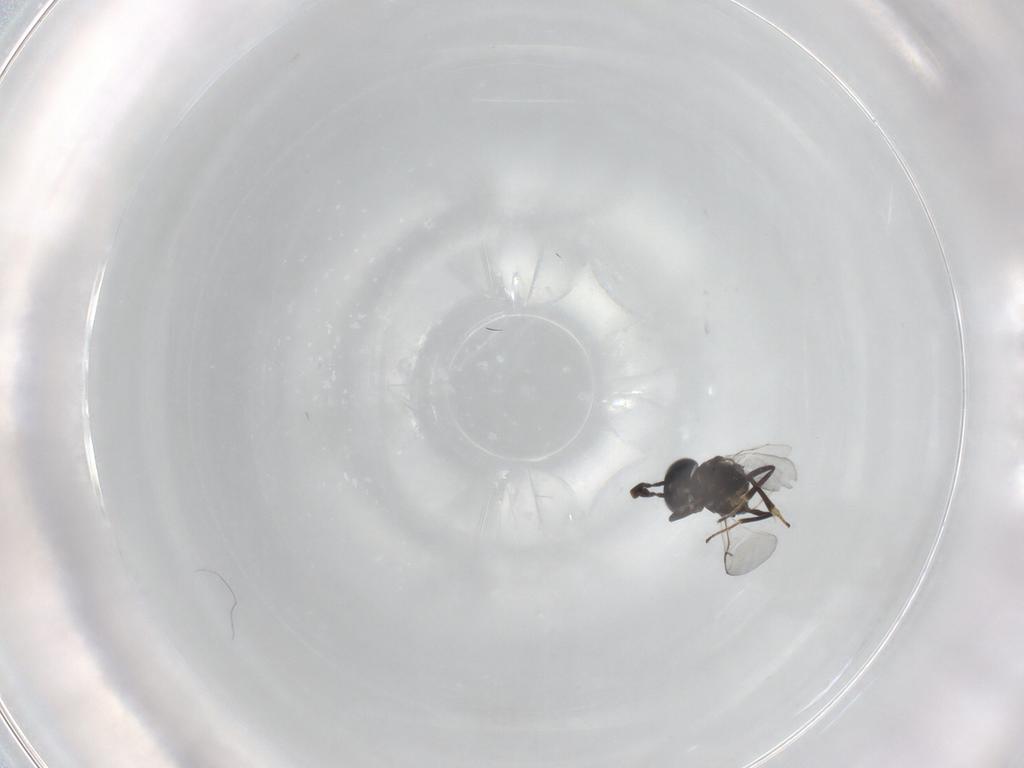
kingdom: Animalia
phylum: Arthropoda
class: Insecta
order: Hymenoptera
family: Encyrtidae
